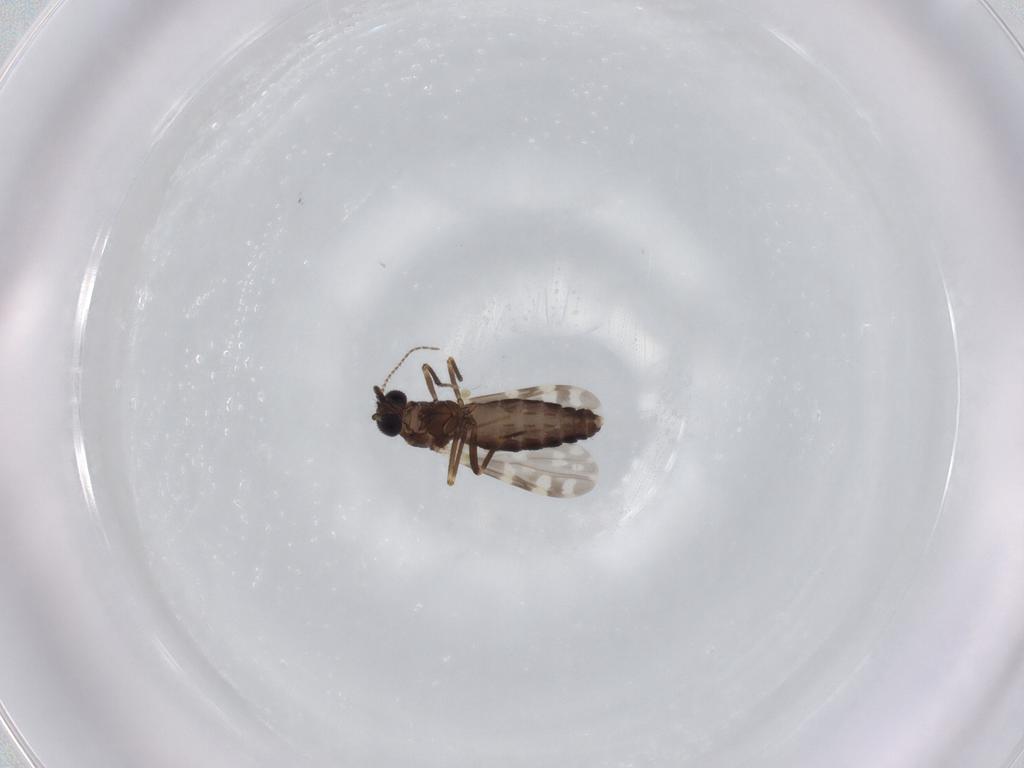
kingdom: Animalia
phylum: Arthropoda
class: Insecta
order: Diptera
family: Ceratopogonidae
